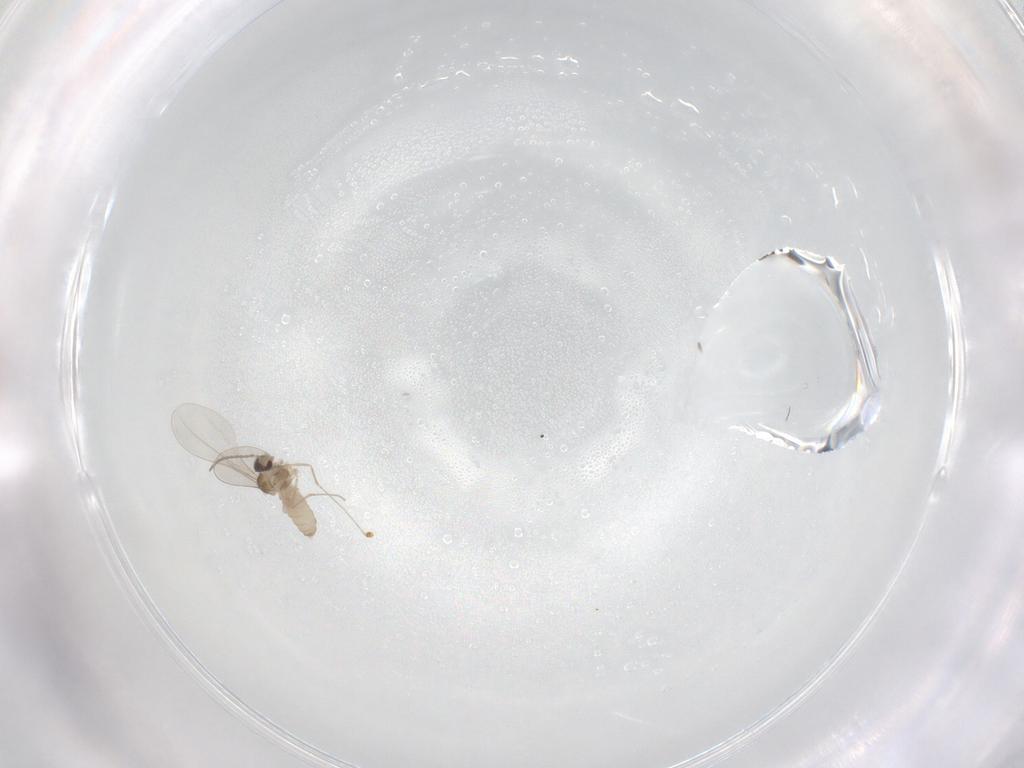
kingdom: Animalia
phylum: Arthropoda
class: Insecta
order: Diptera
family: Cecidomyiidae
